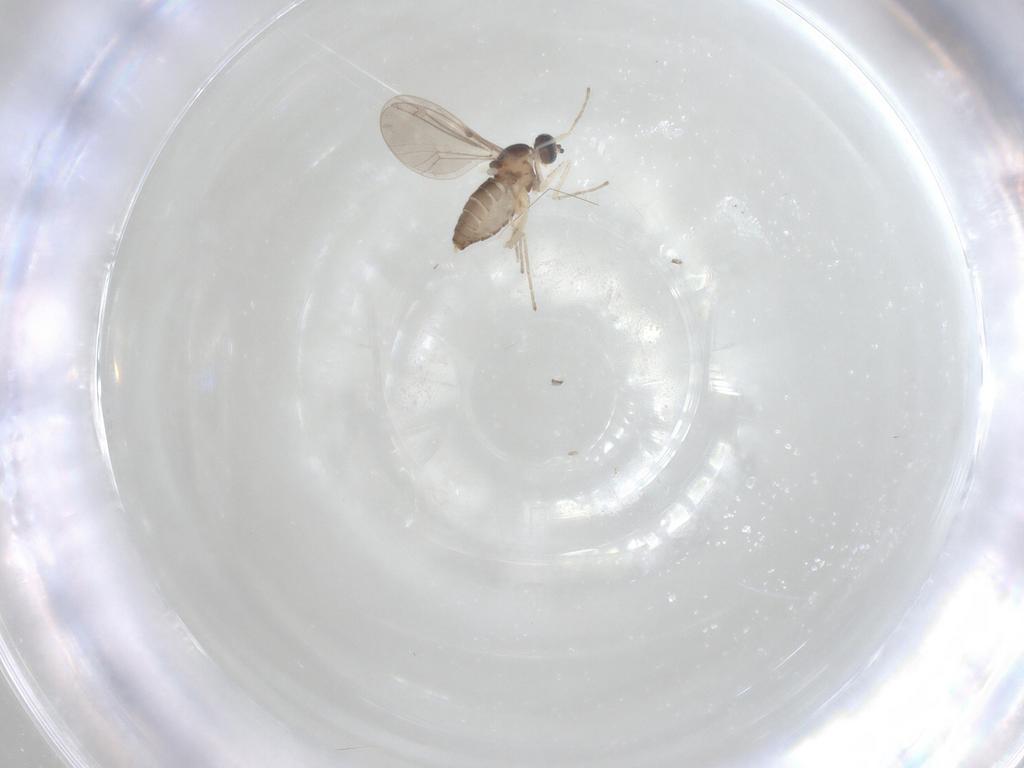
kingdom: Animalia
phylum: Arthropoda
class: Insecta
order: Diptera
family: Cecidomyiidae
